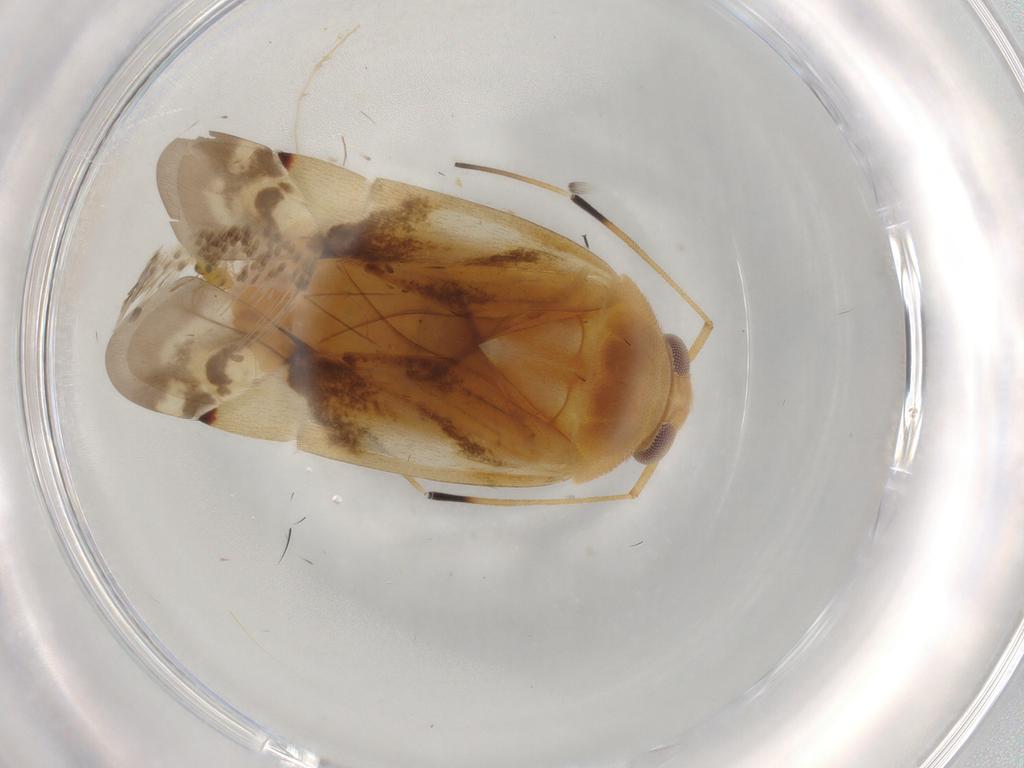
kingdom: Animalia
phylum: Arthropoda
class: Insecta
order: Hemiptera
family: Miridae
